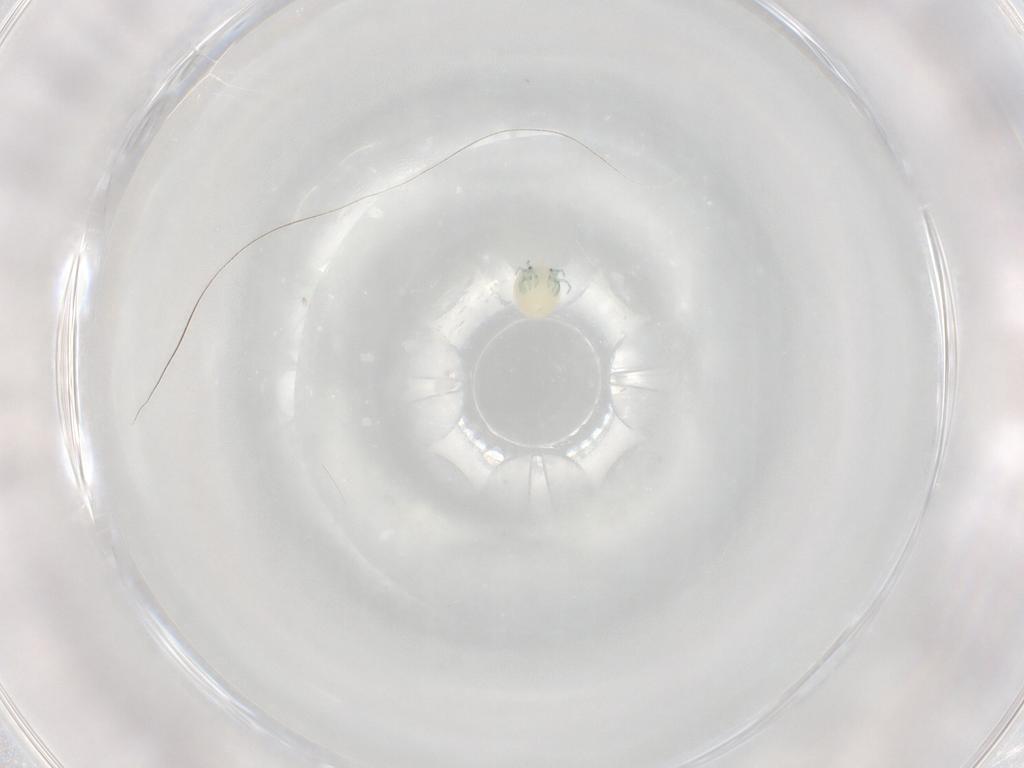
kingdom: Animalia
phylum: Arthropoda
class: Arachnida
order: Trombidiformes
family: Arrenuridae
